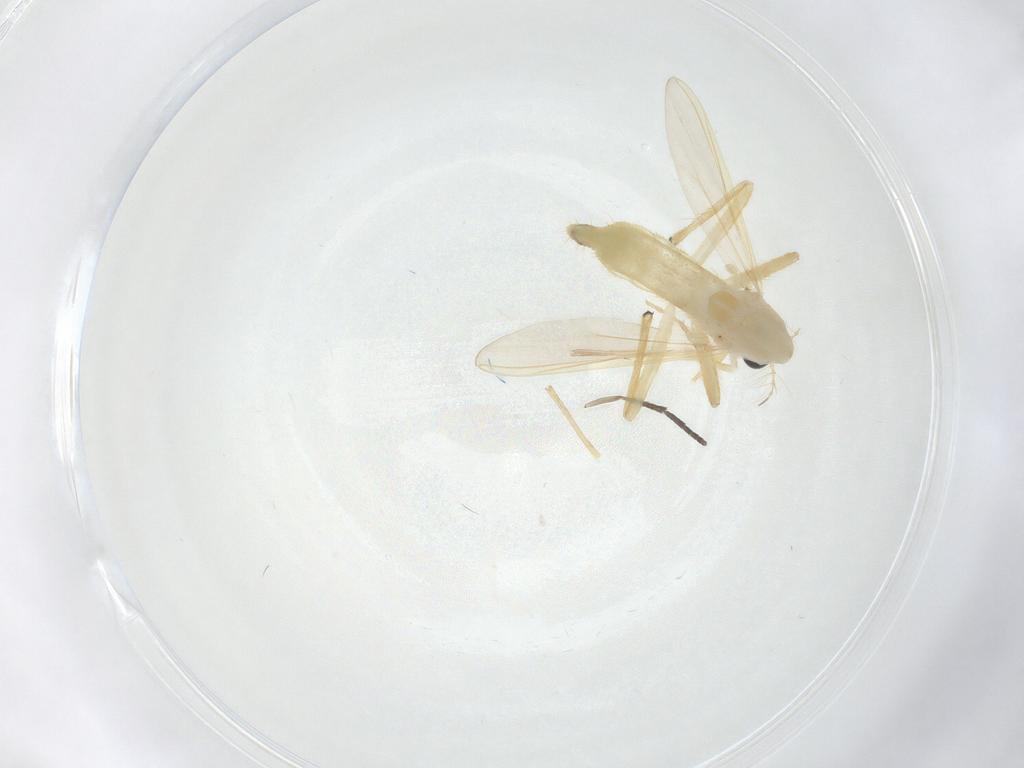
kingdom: Animalia
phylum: Arthropoda
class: Insecta
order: Diptera
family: Chironomidae
